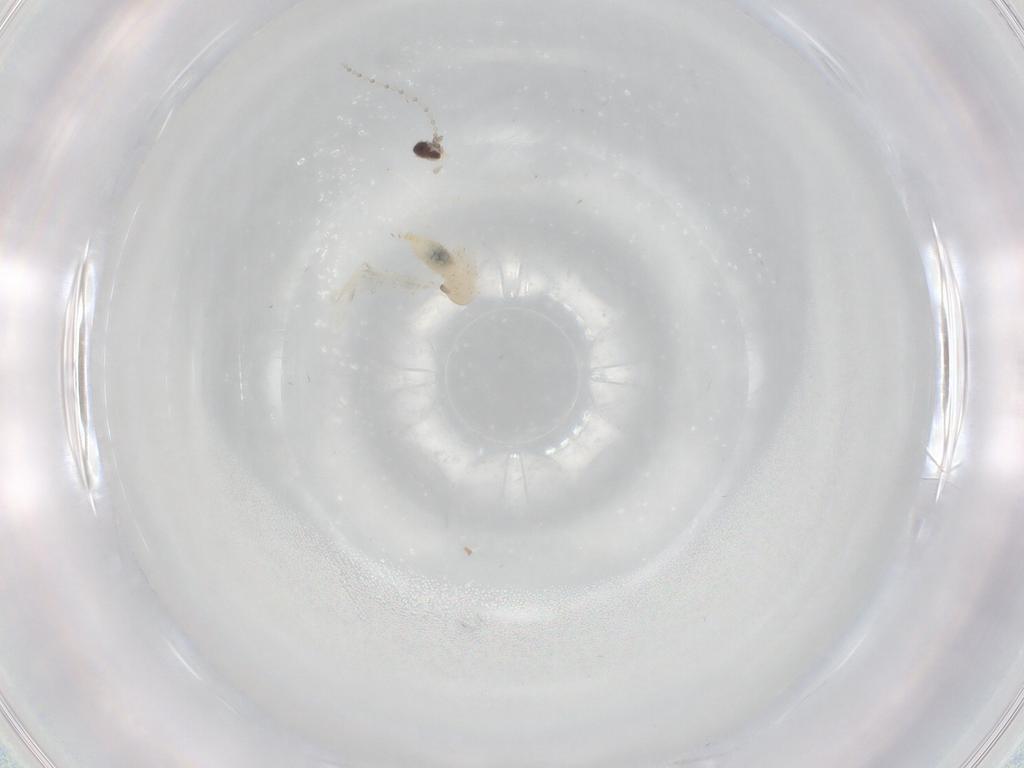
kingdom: Animalia
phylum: Arthropoda
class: Insecta
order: Diptera
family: Cecidomyiidae
